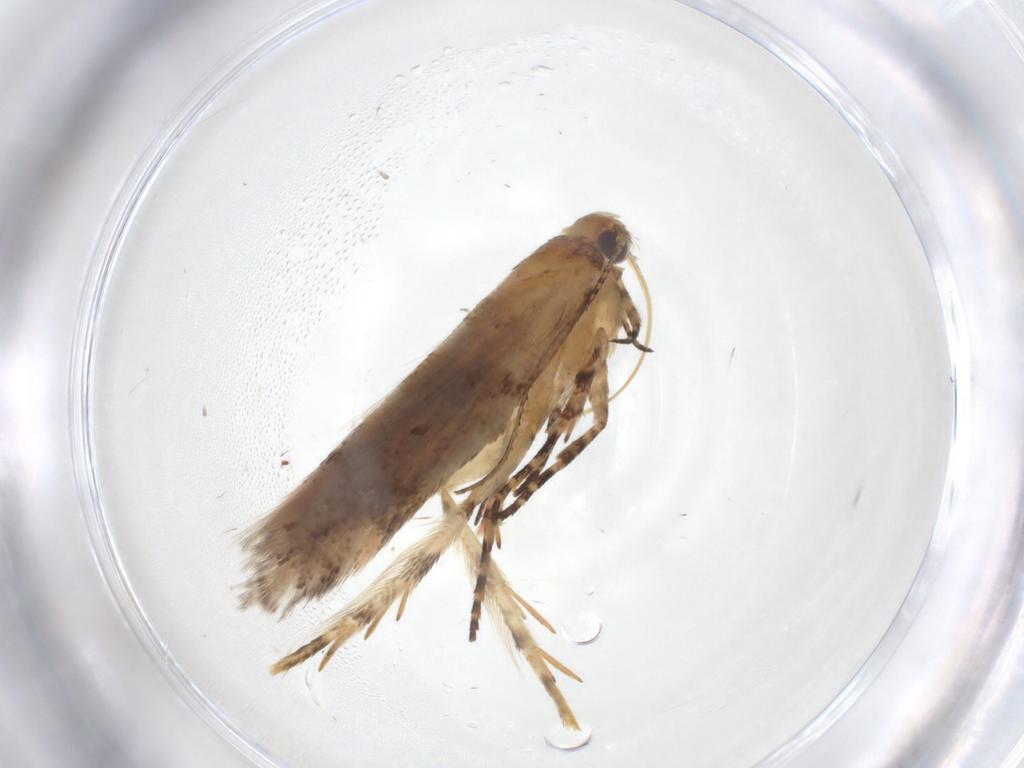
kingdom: Animalia
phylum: Arthropoda
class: Insecta
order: Lepidoptera
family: Gelechiidae
